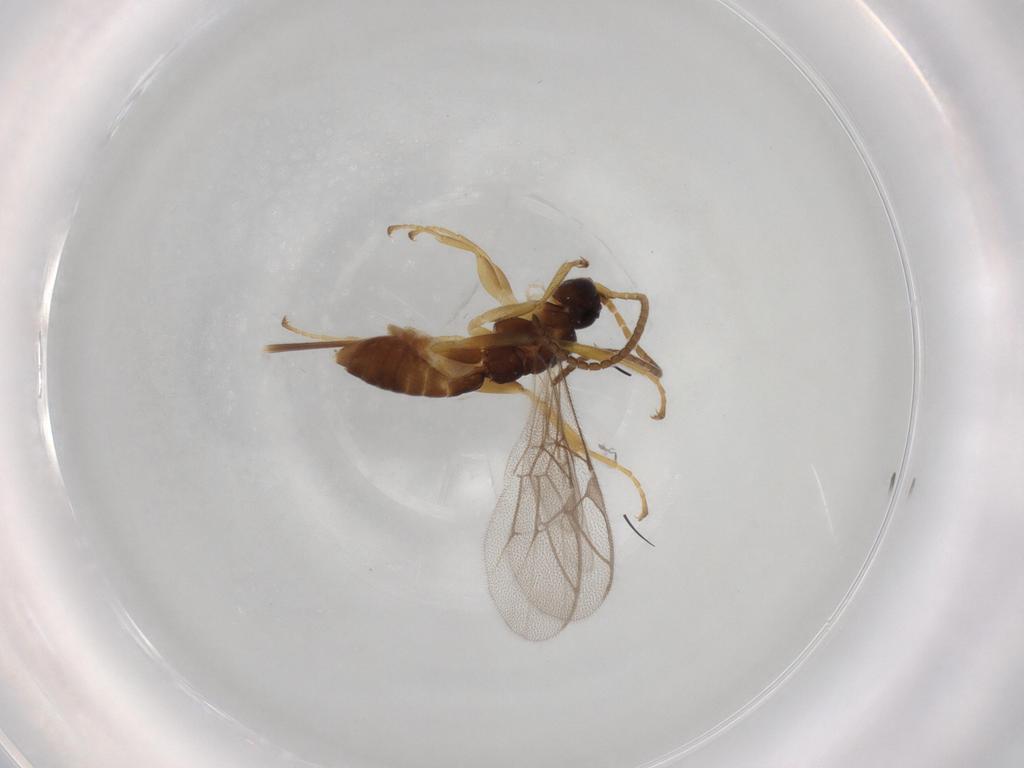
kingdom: Animalia
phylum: Arthropoda
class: Insecta
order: Hymenoptera
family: Ichneumonidae
